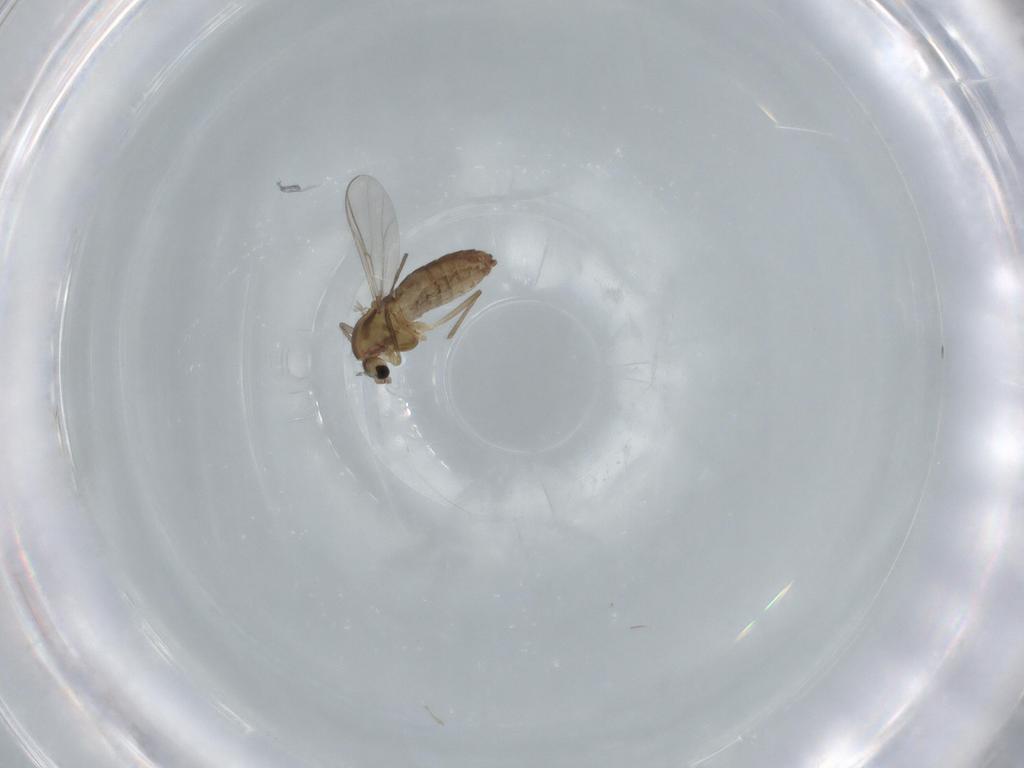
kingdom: Animalia
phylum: Arthropoda
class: Insecta
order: Diptera
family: Chironomidae
